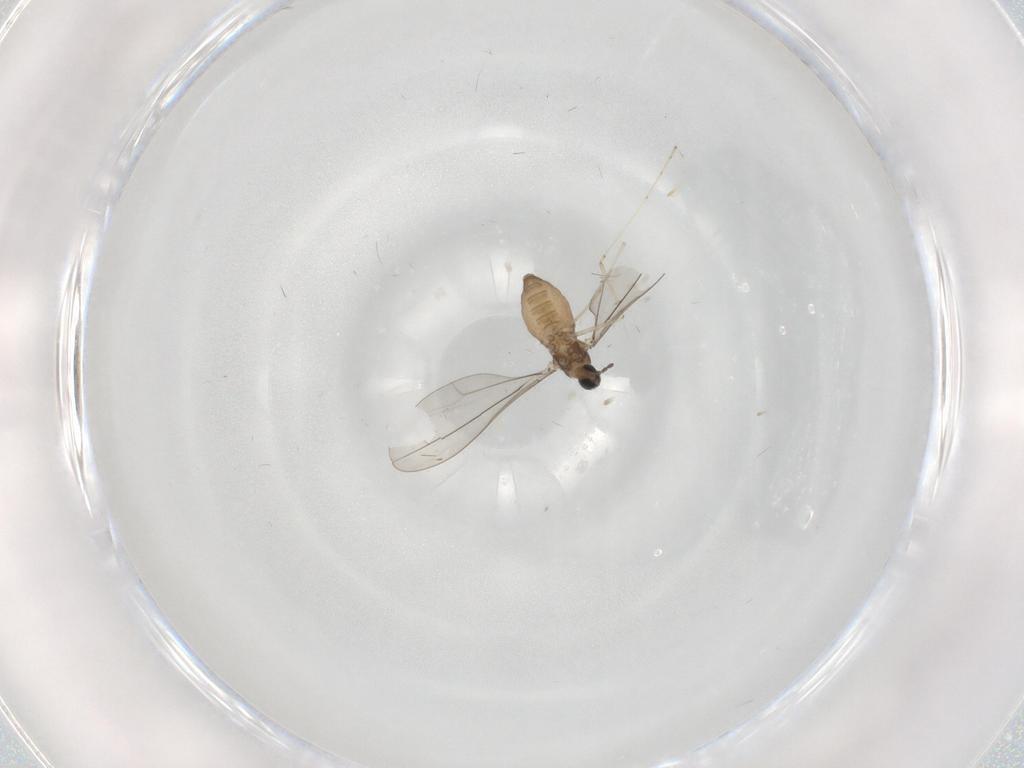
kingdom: Animalia
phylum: Arthropoda
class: Insecta
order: Diptera
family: Cecidomyiidae
